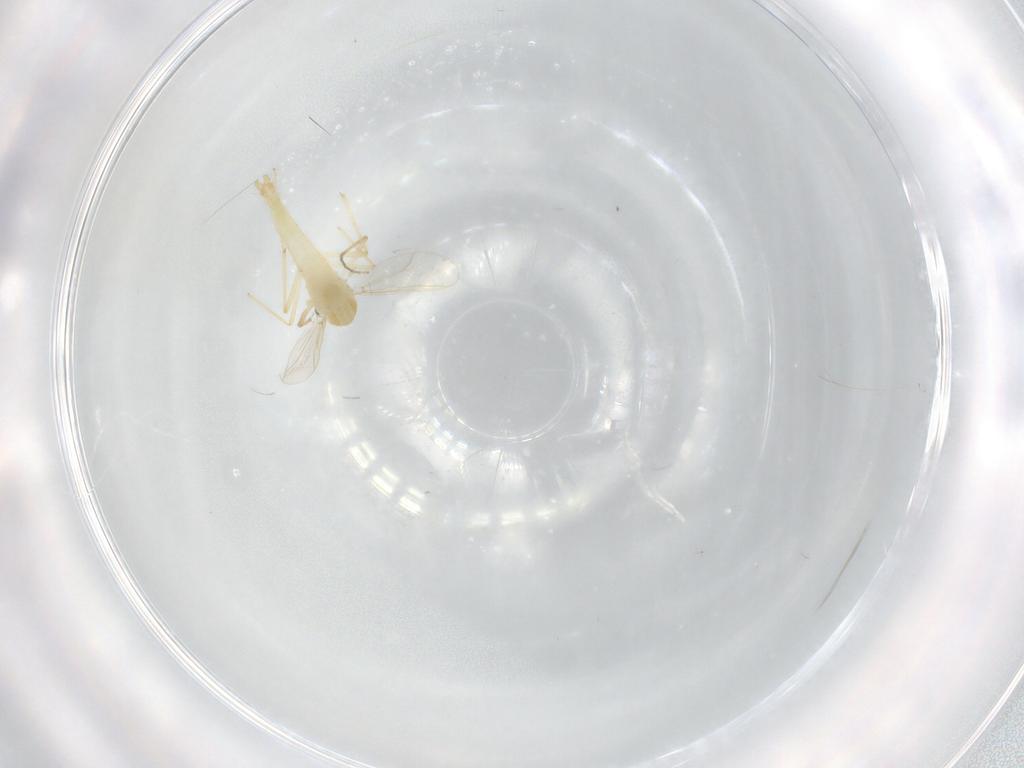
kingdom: Animalia
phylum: Arthropoda
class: Insecta
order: Diptera
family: Chironomidae
